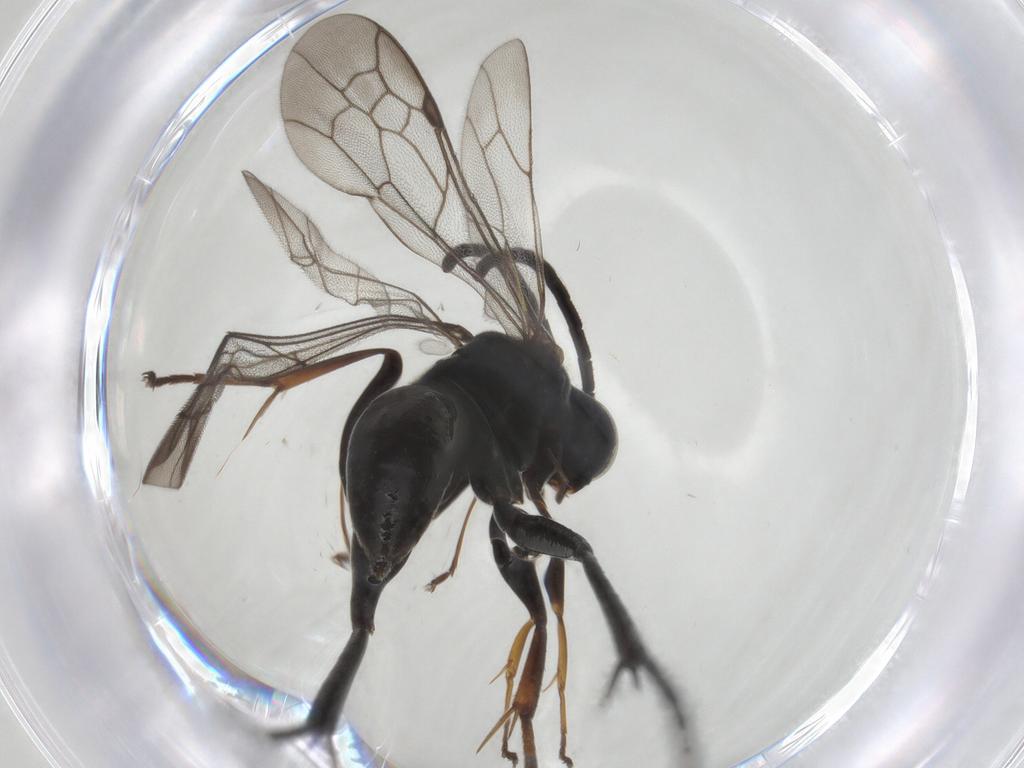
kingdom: Animalia
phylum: Arthropoda
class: Insecta
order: Hymenoptera
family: Pompilidae
